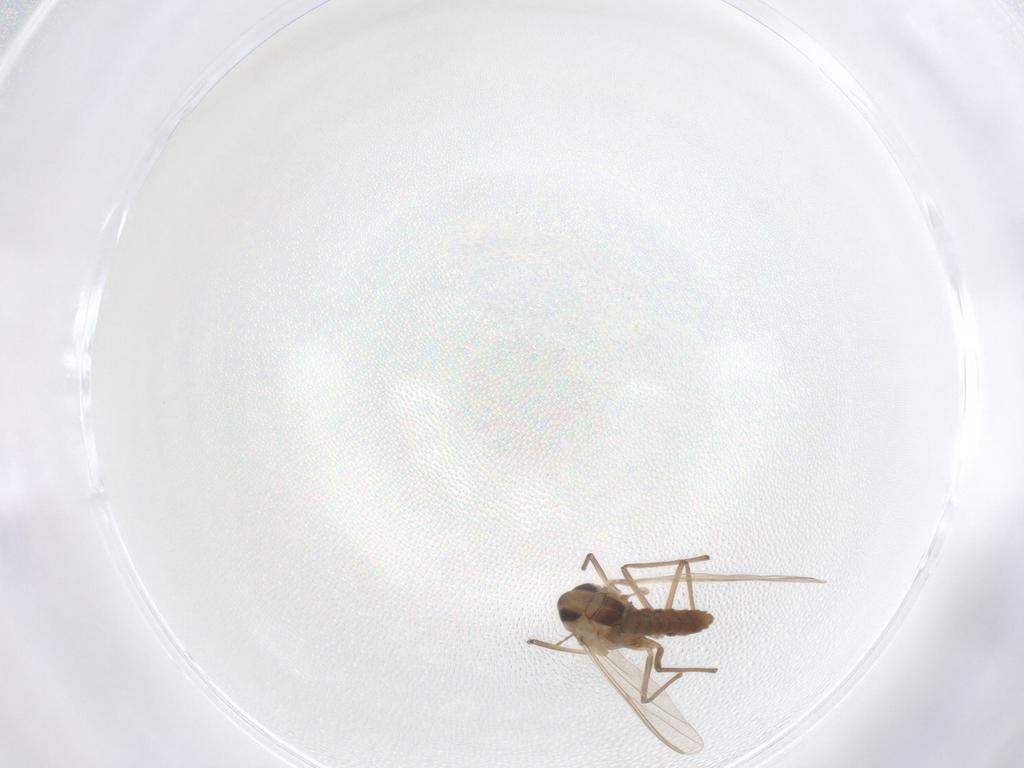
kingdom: Animalia
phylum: Arthropoda
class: Insecta
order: Diptera
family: Chironomidae
